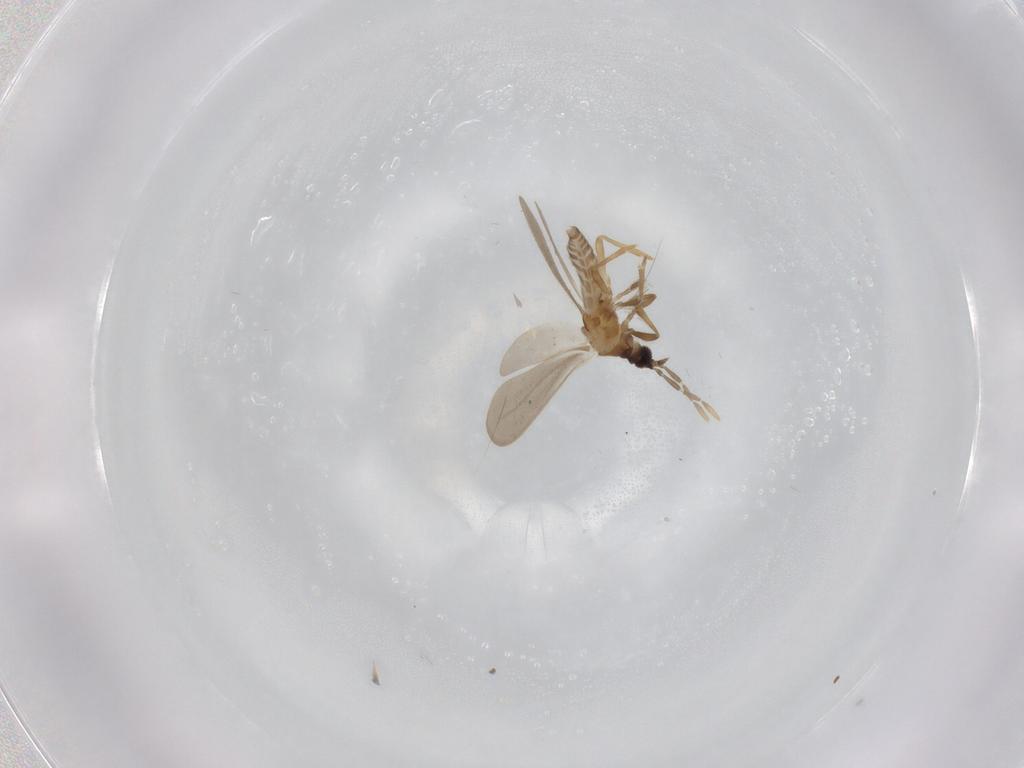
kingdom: Animalia
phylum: Arthropoda
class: Insecta
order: Hemiptera
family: Enicocephalidae
